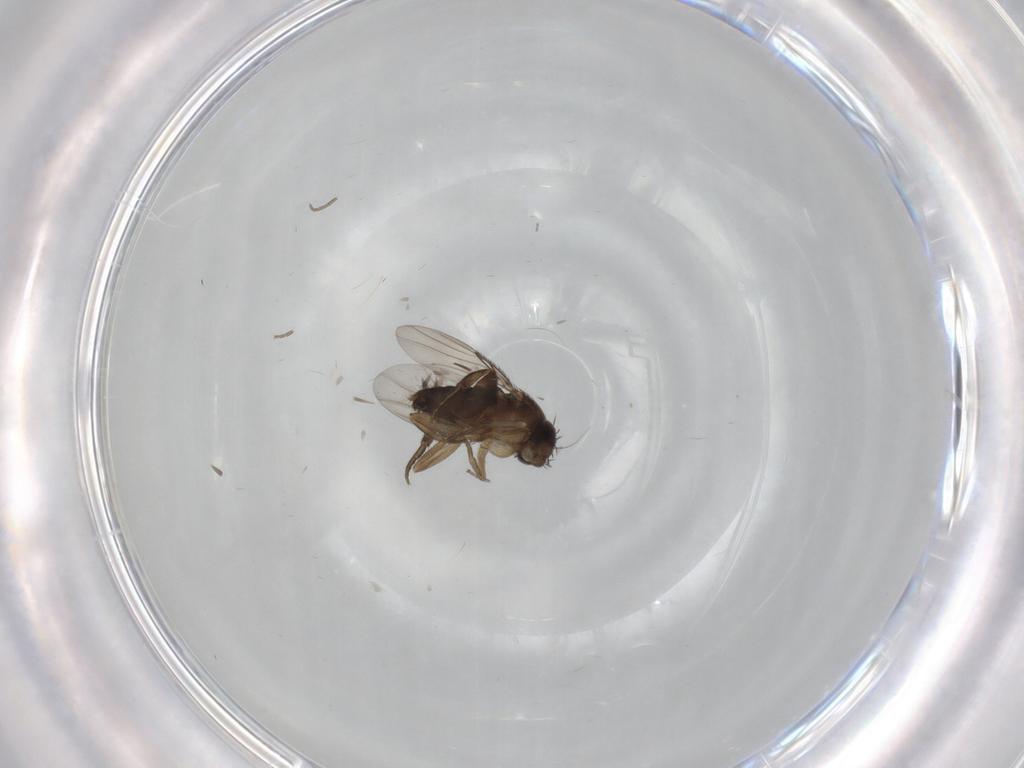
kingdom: Animalia
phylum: Arthropoda
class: Insecta
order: Diptera
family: Phoridae
